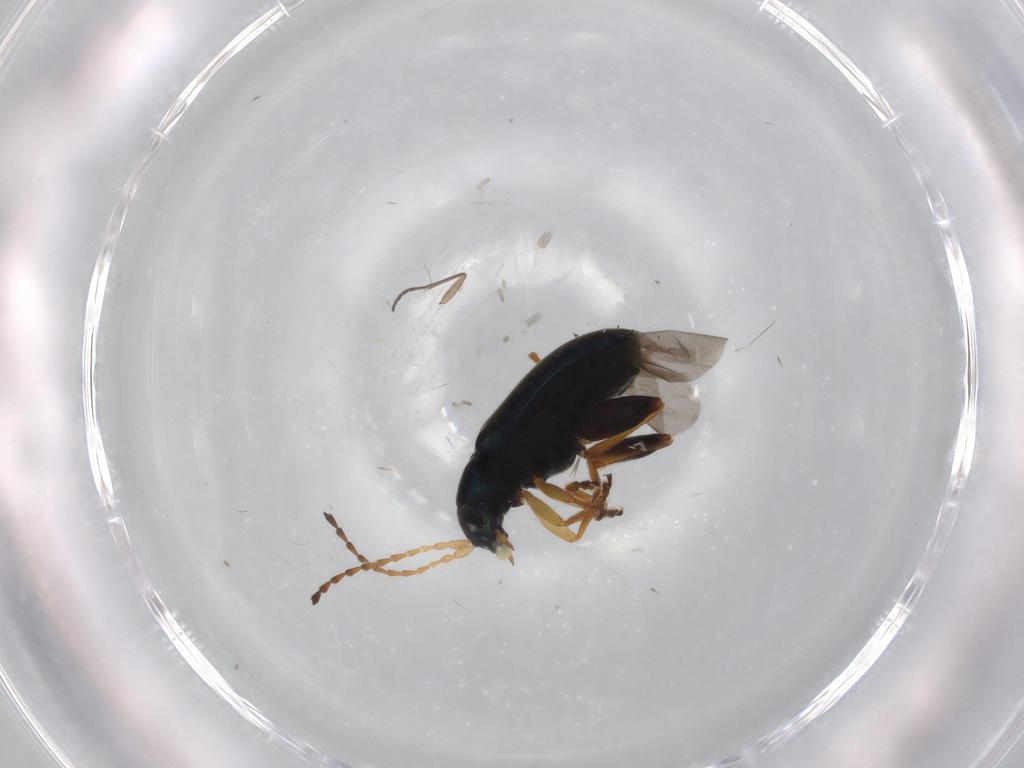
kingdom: Animalia
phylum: Arthropoda
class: Insecta
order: Coleoptera
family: Chrysomelidae
